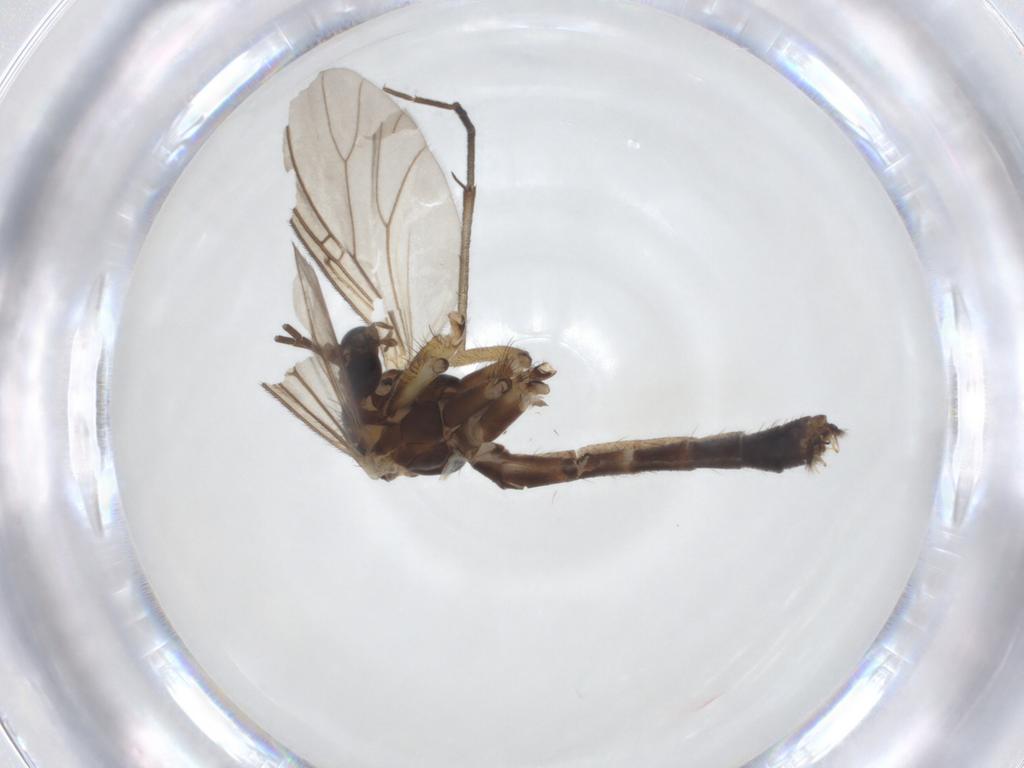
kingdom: Animalia
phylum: Arthropoda
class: Insecta
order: Diptera
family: Phoridae
